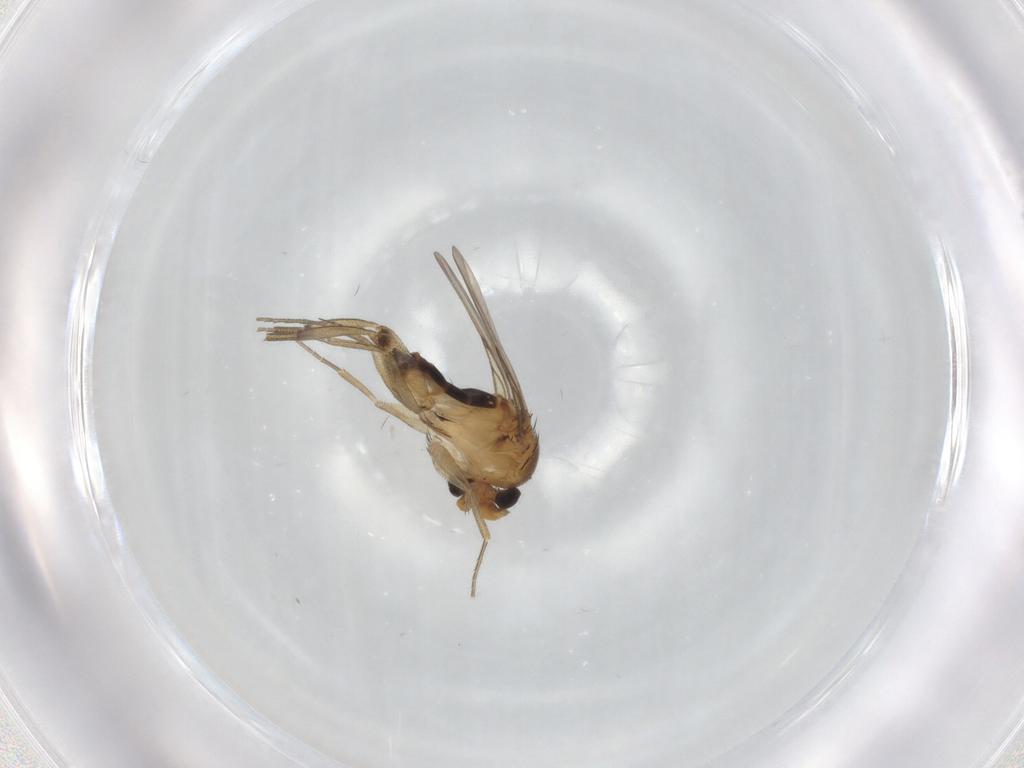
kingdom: Animalia
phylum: Arthropoda
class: Insecta
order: Diptera
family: Phoridae
